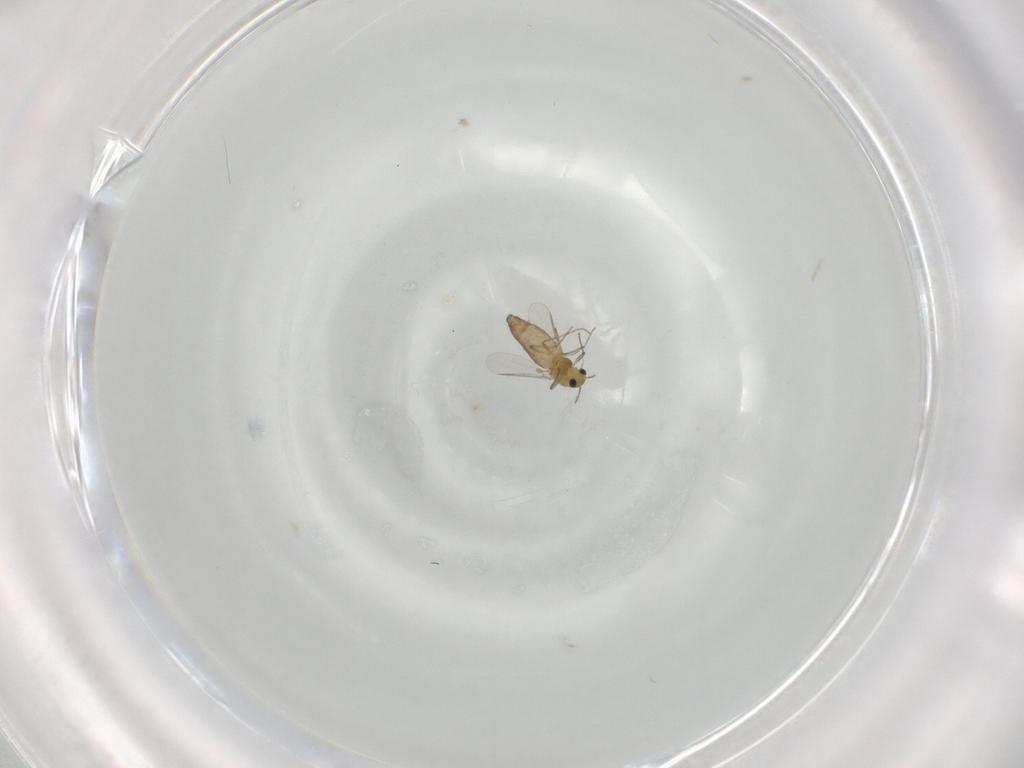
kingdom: Animalia
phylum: Arthropoda
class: Insecta
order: Diptera
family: Chironomidae
